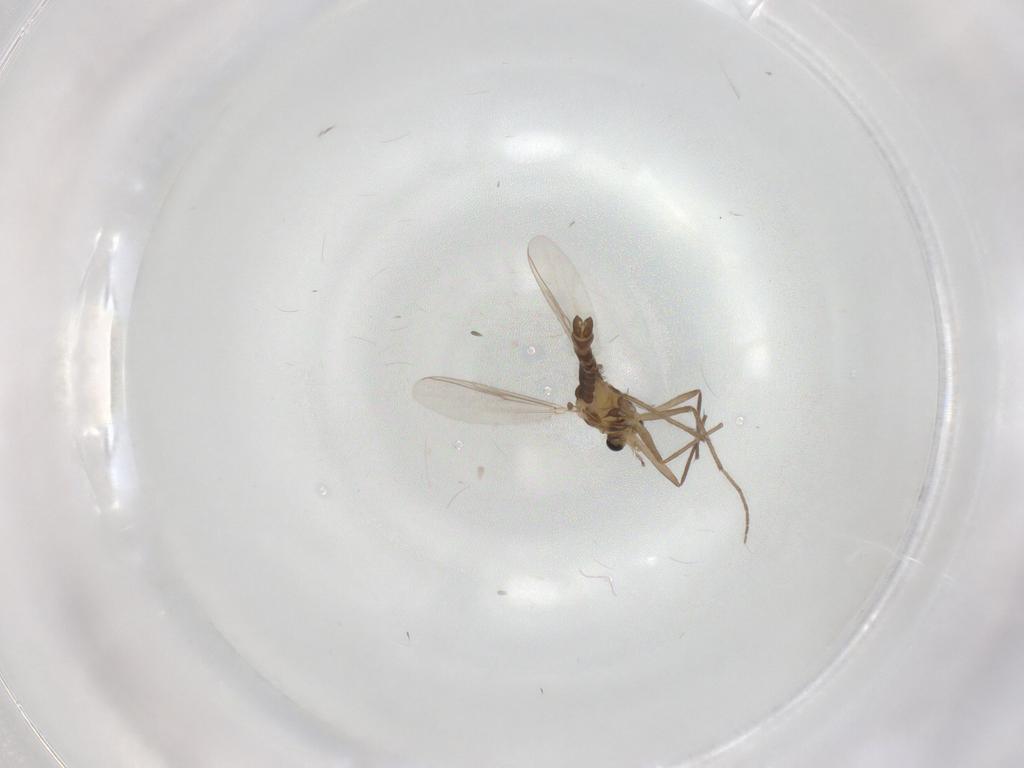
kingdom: Animalia
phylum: Arthropoda
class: Insecta
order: Diptera
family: Chironomidae
